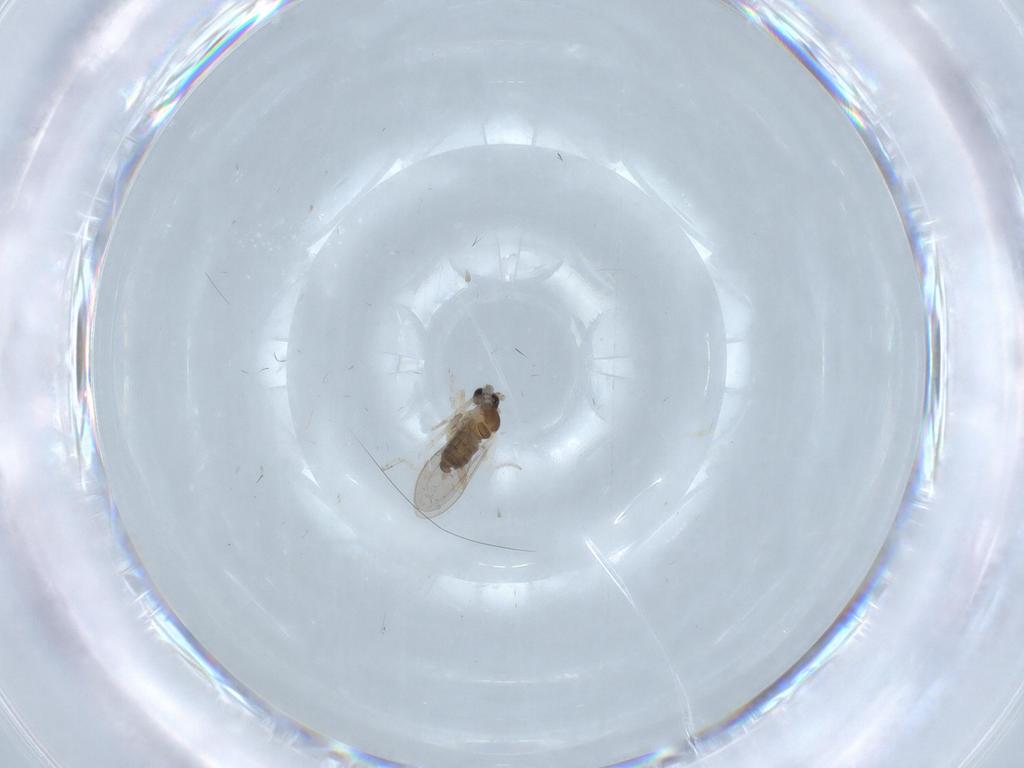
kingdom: Animalia
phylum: Arthropoda
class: Insecta
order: Diptera
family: Cecidomyiidae
